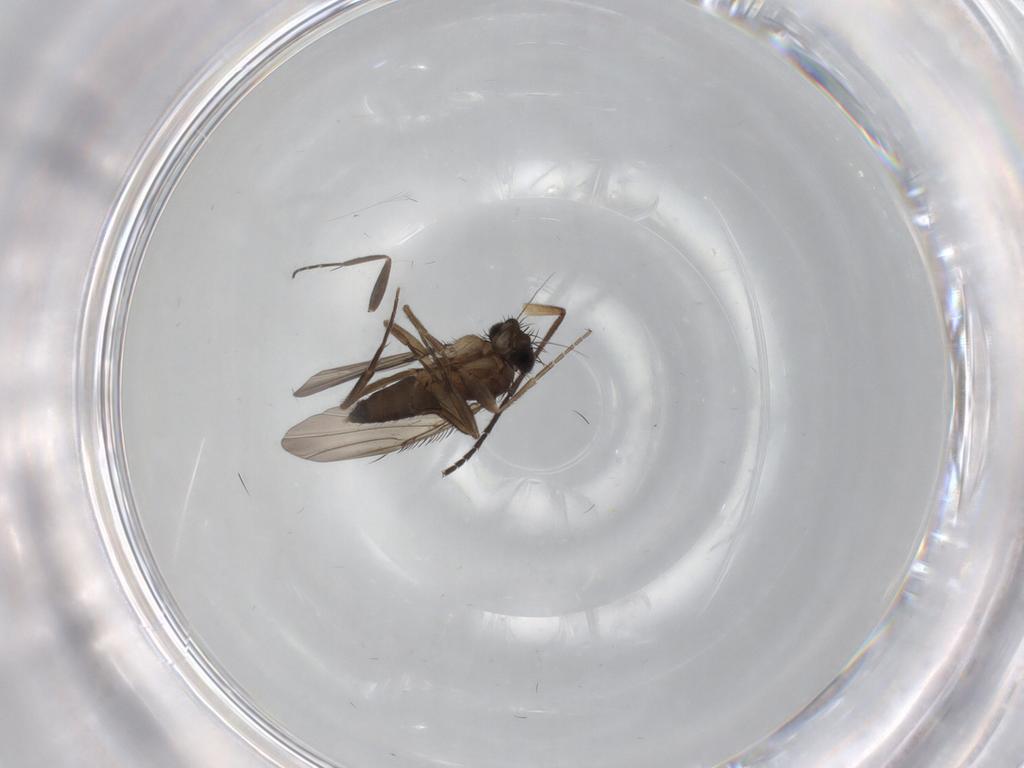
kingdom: Animalia
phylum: Arthropoda
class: Insecta
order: Diptera
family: Phoridae
